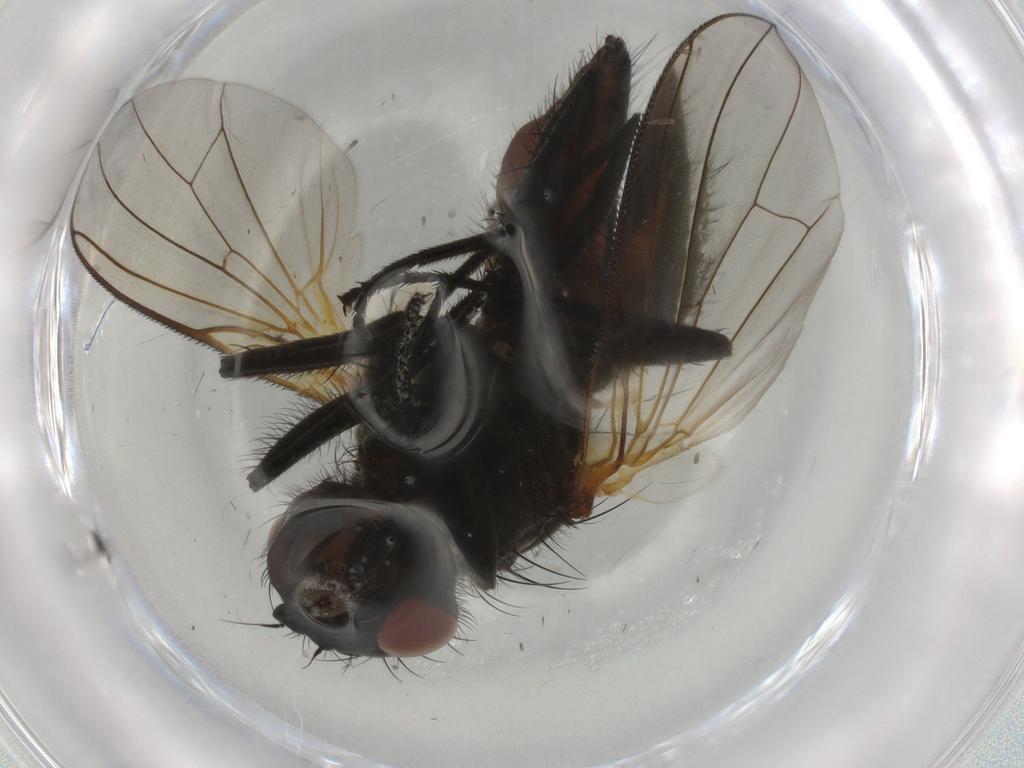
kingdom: Animalia
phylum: Arthropoda
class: Insecta
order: Diptera
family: Anthomyiidae
